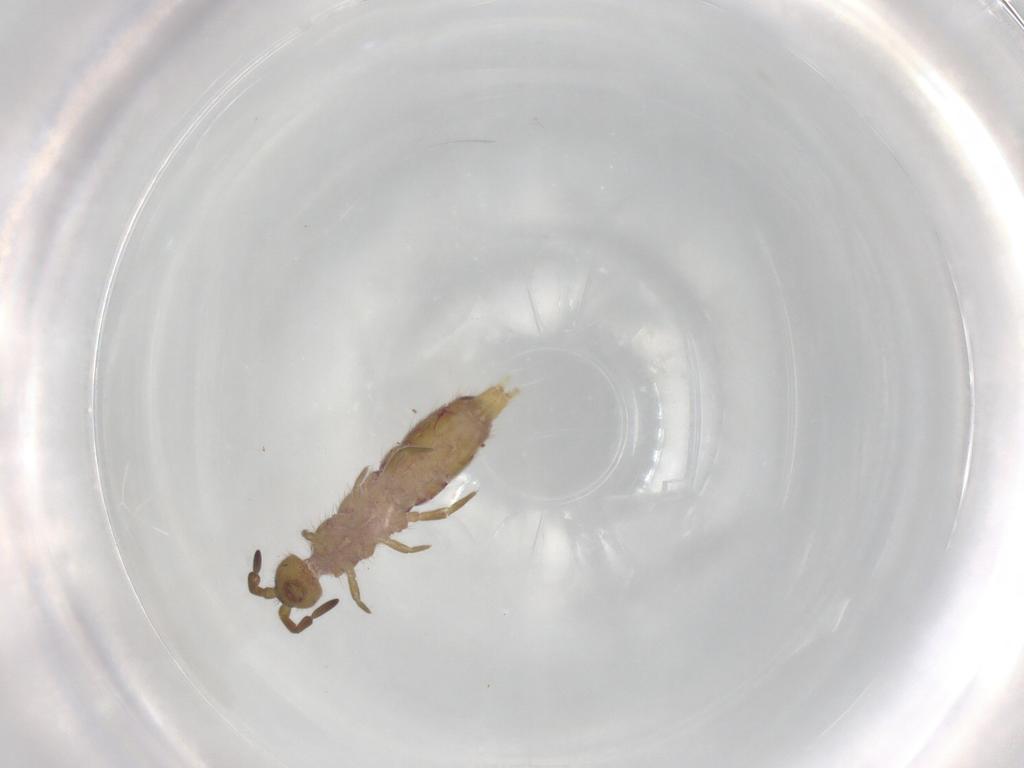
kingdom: Animalia
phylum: Arthropoda
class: Collembola
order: Entomobryomorpha
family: Isotomidae
